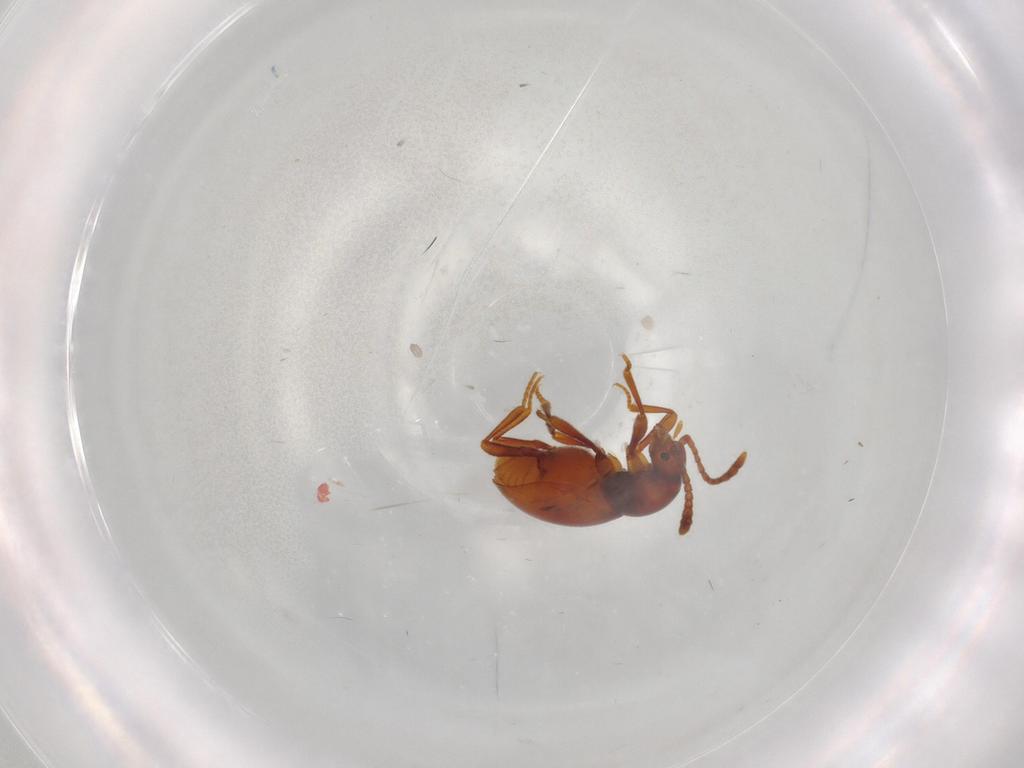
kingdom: Animalia
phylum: Arthropoda
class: Insecta
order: Coleoptera
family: Staphylinidae
